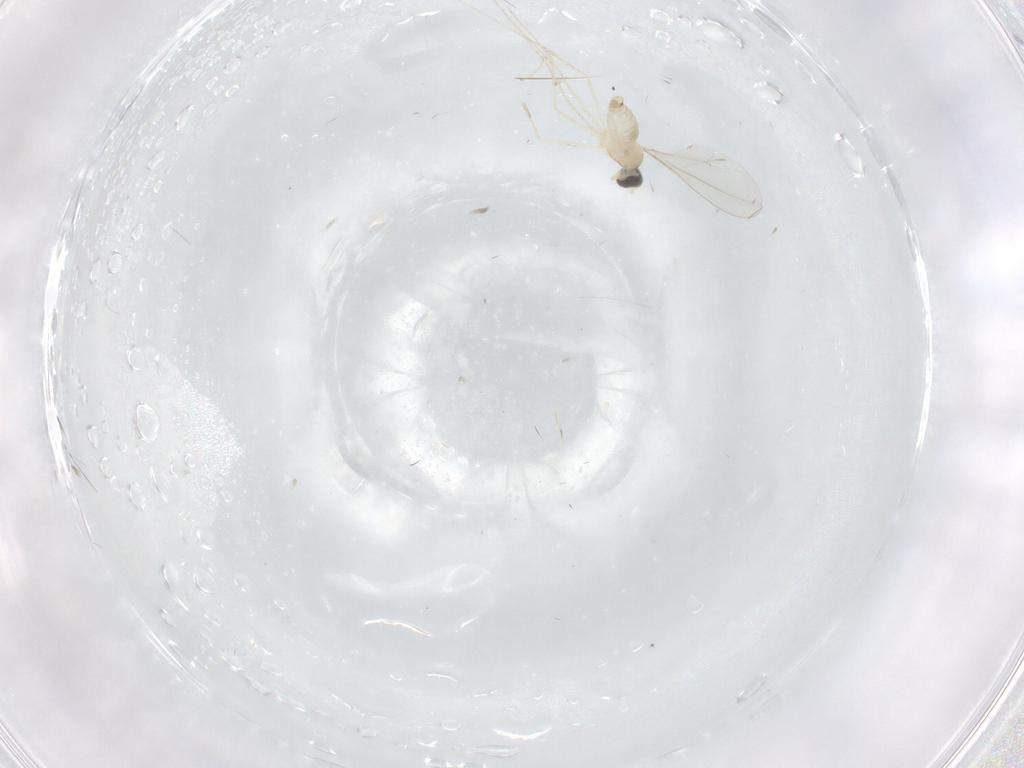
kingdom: Animalia
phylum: Arthropoda
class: Insecta
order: Diptera
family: Cecidomyiidae
